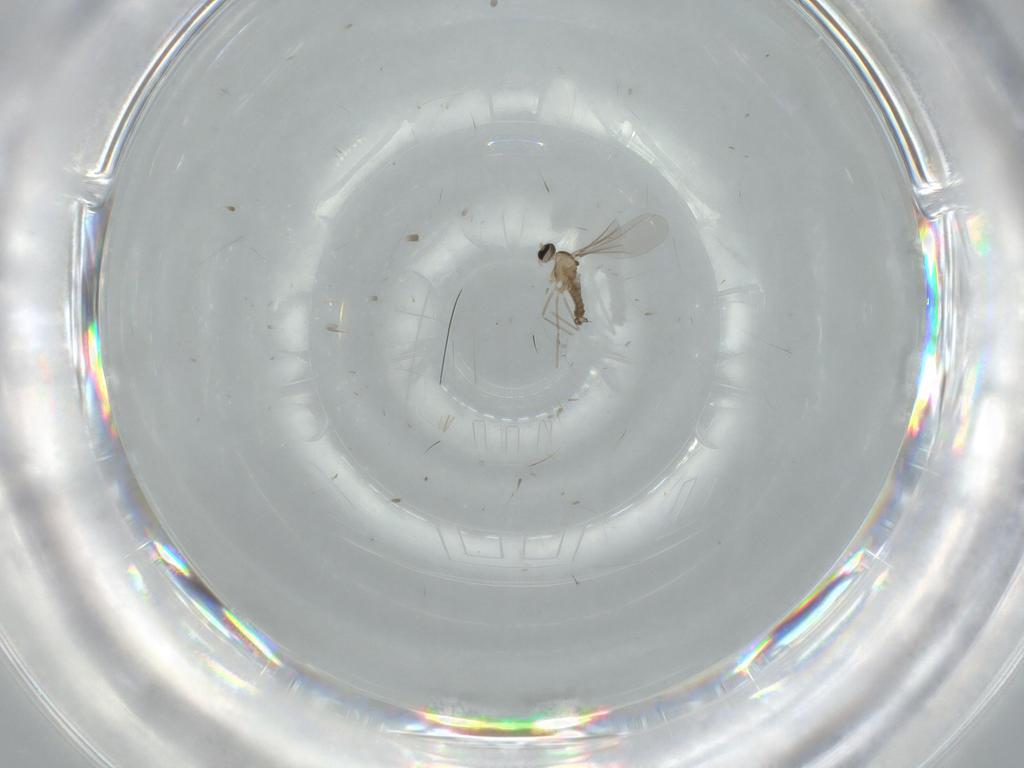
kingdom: Animalia
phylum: Arthropoda
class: Insecta
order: Diptera
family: Cecidomyiidae
